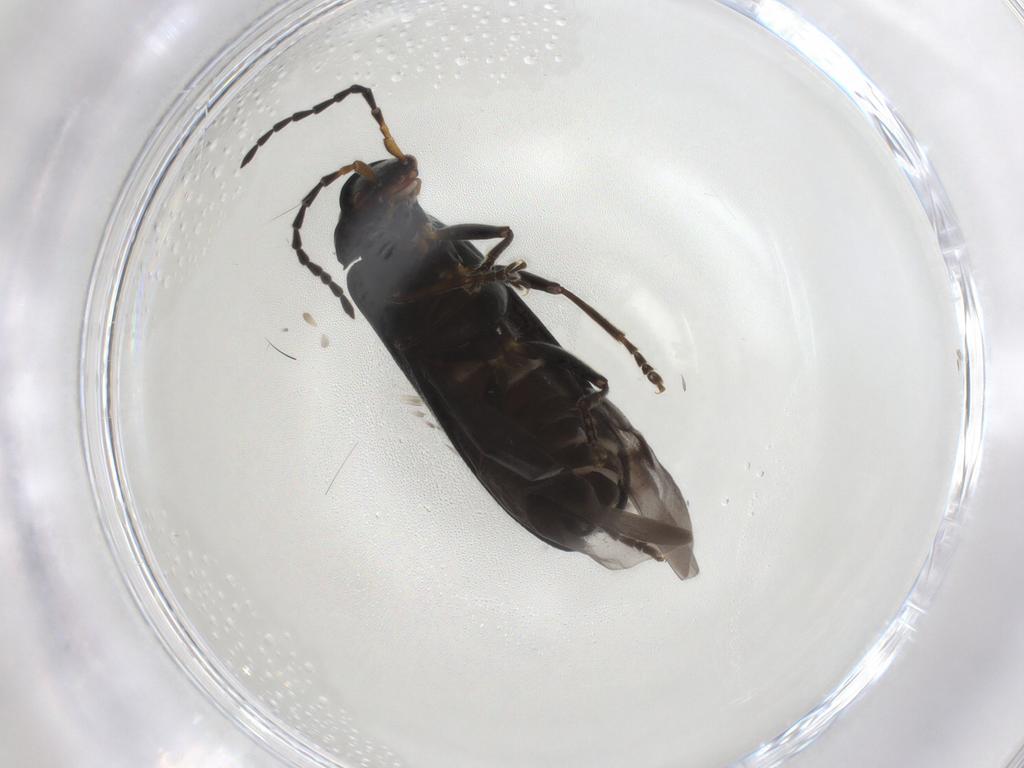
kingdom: Animalia
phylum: Arthropoda
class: Insecta
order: Coleoptera
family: Cantharidae
